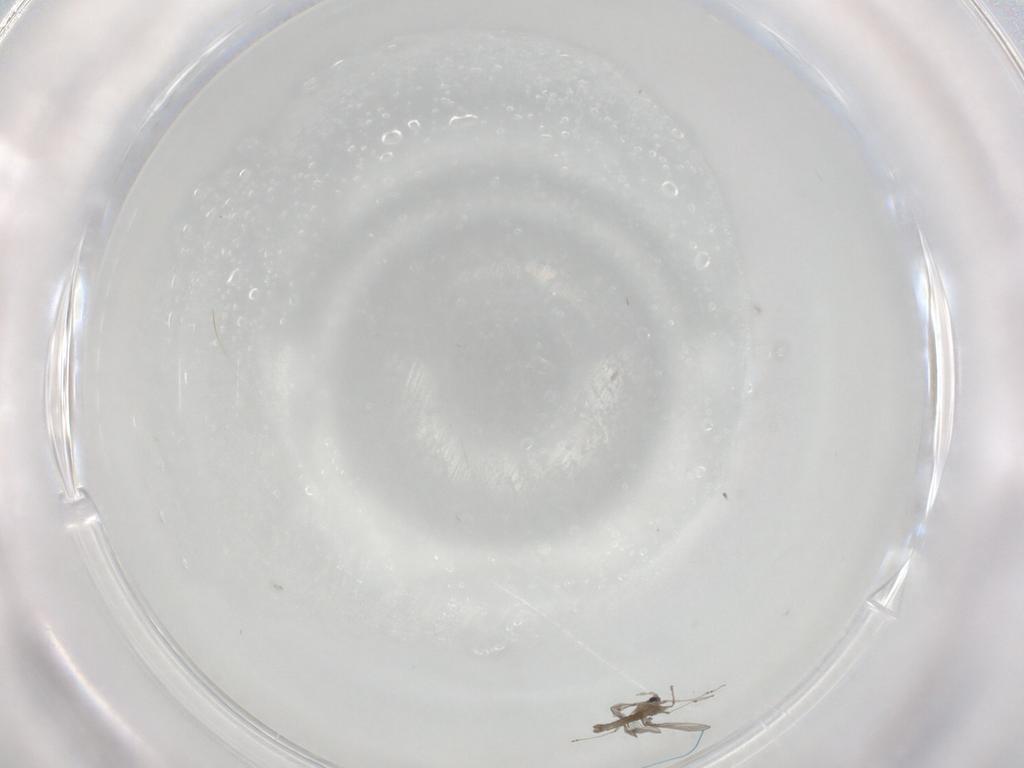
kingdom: Animalia
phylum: Arthropoda
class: Insecta
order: Diptera
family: Cecidomyiidae
